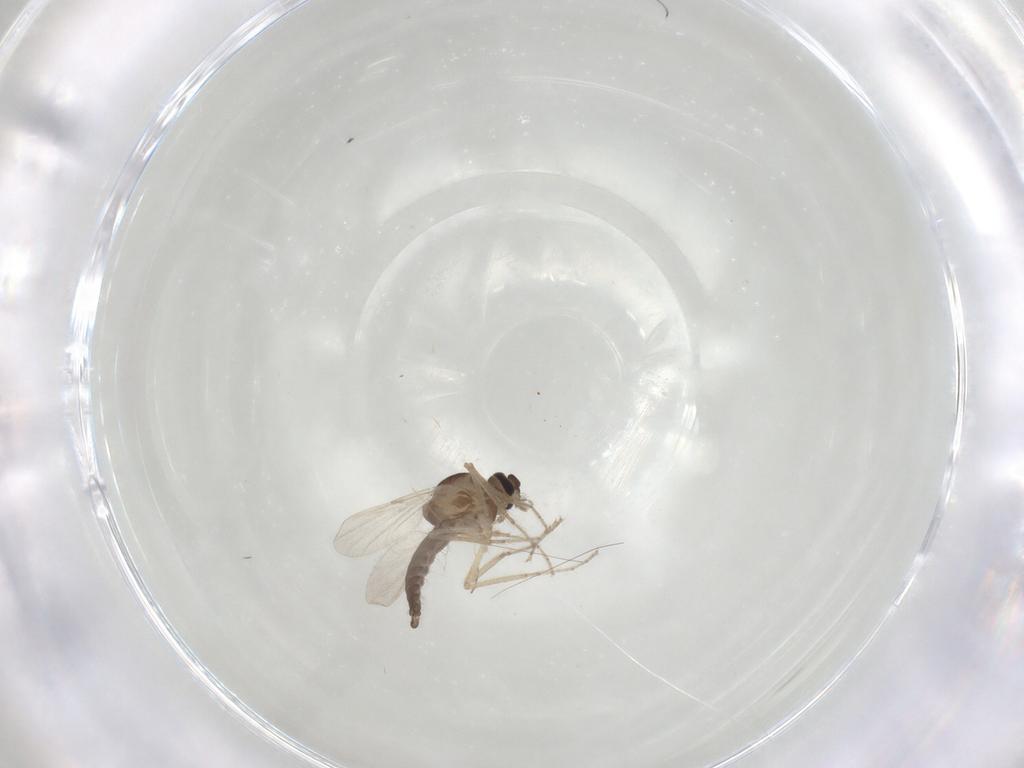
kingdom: Animalia
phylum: Arthropoda
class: Insecta
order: Diptera
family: Ceratopogonidae
